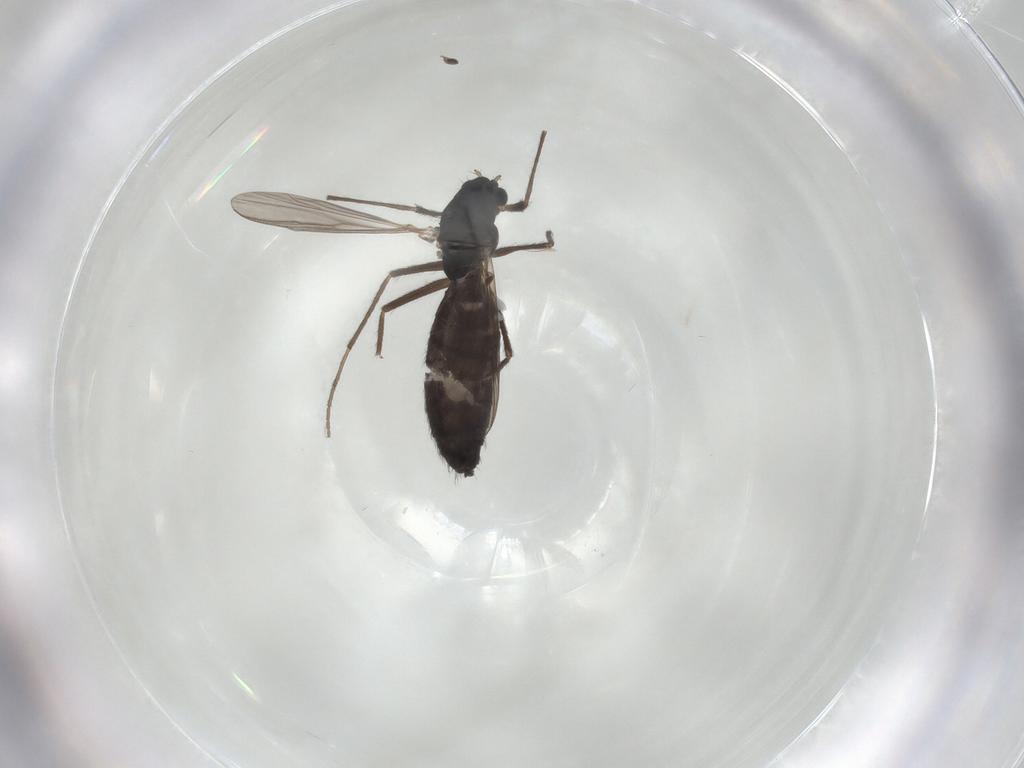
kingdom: Animalia
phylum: Arthropoda
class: Insecta
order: Diptera
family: Chironomidae
